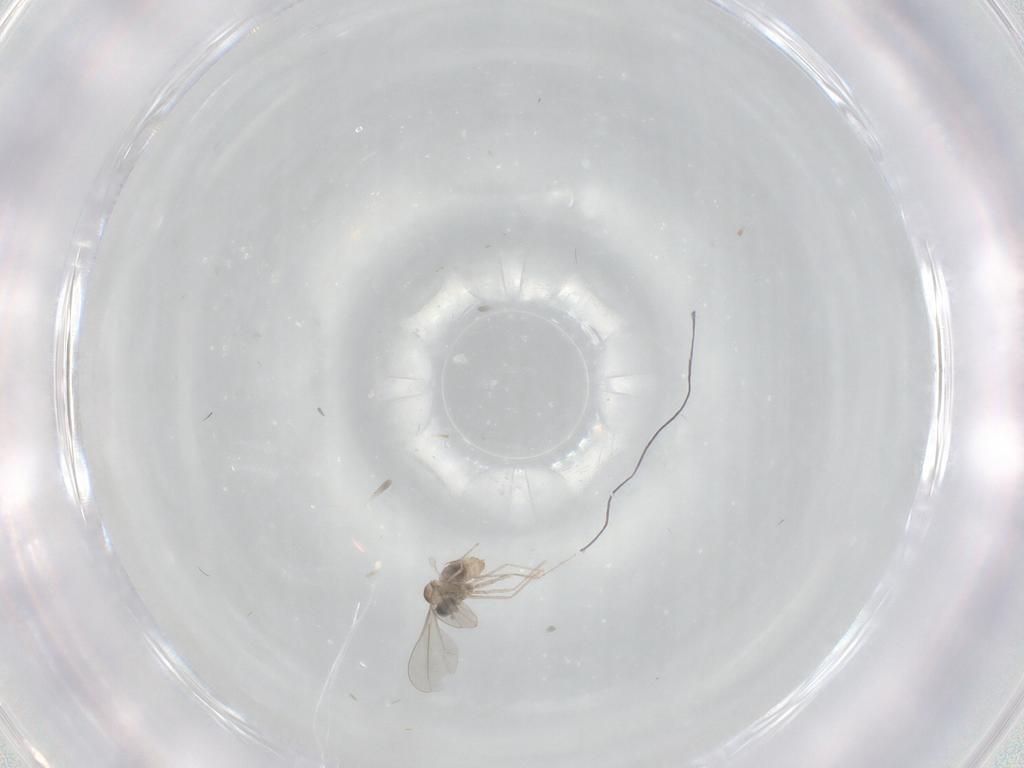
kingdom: Animalia
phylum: Arthropoda
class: Insecta
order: Diptera
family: Cecidomyiidae
